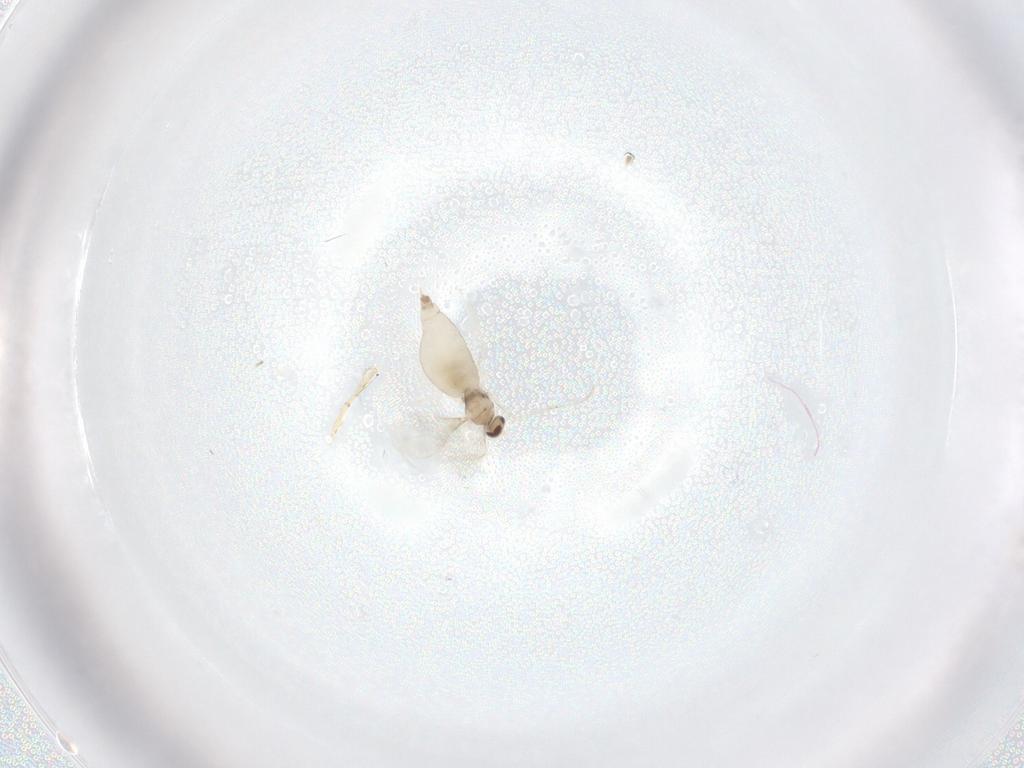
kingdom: Animalia
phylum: Arthropoda
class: Insecta
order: Diptera
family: Cecidomyiidae
